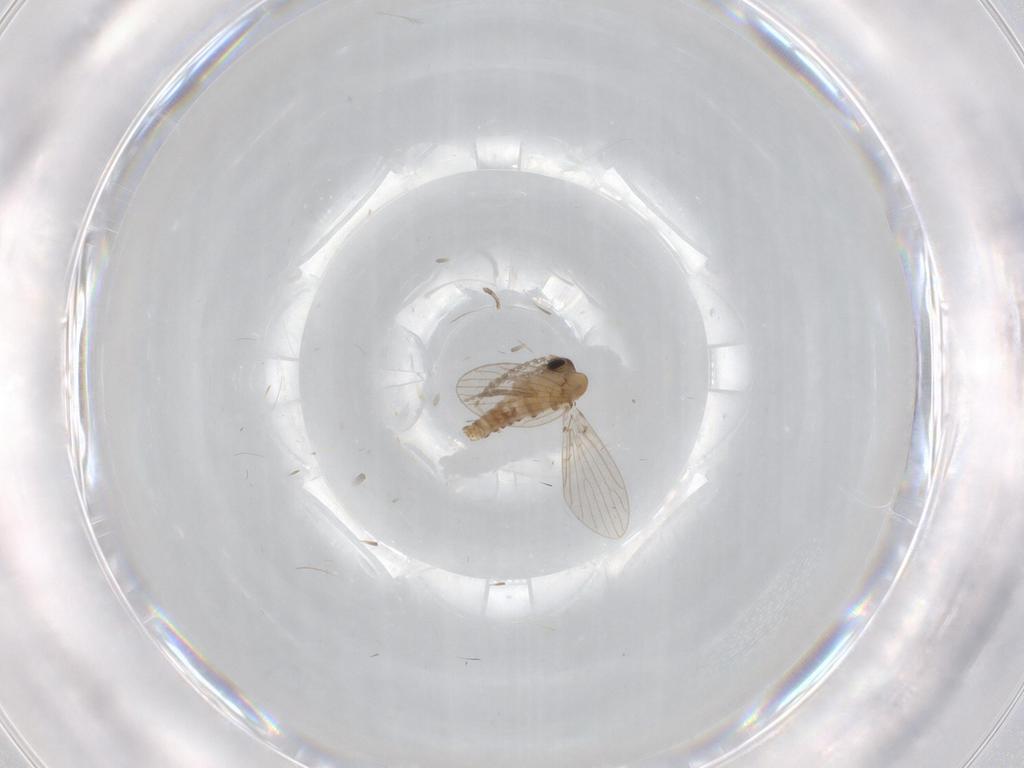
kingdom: Animalia
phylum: Arthropoda
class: Insecta
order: Diptera
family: Psychodidae
